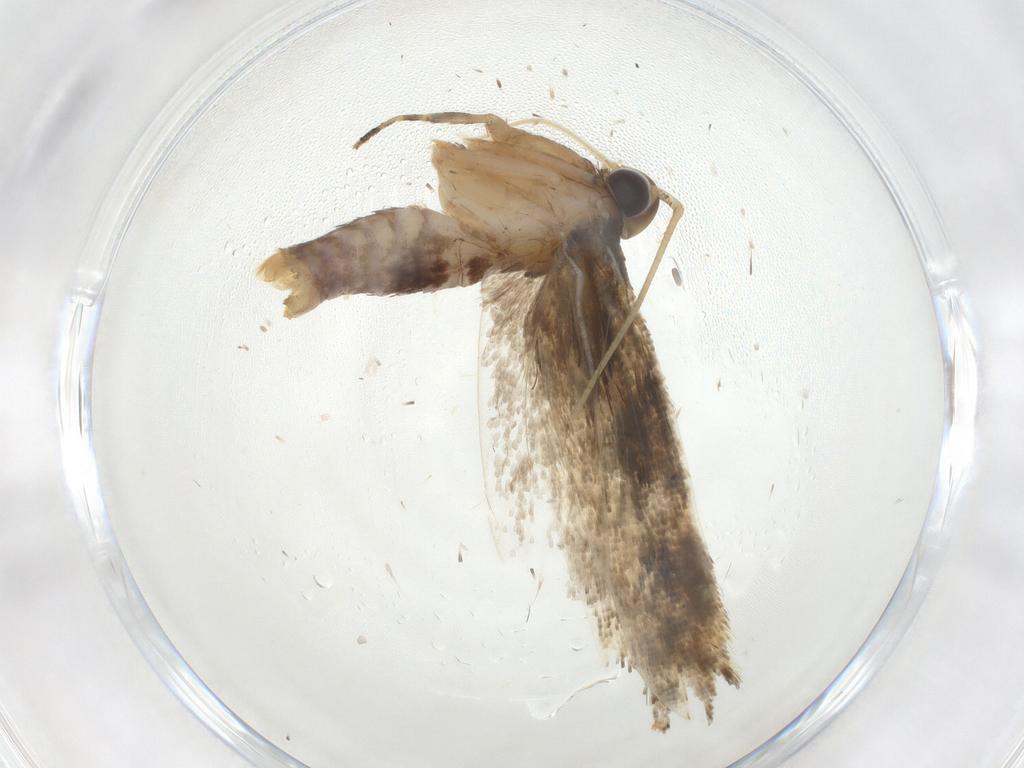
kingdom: Animalia
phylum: Arthropoda
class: Insecta
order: Lepidoptera
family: Gelechiidae
